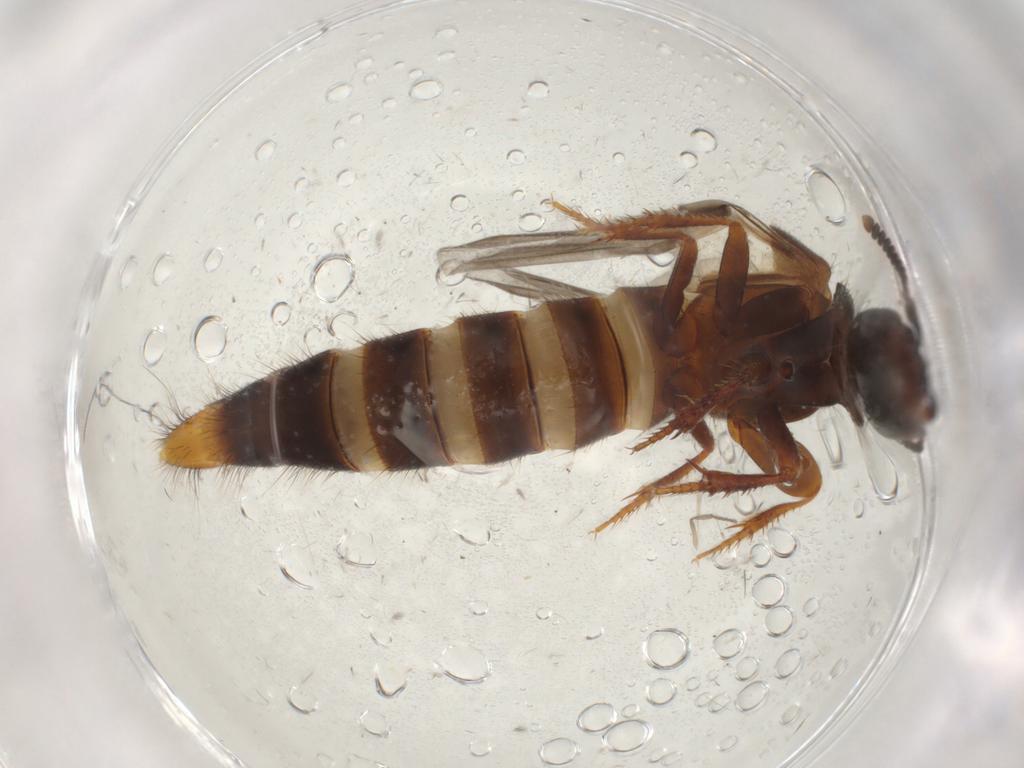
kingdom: Animalia
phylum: Arthropoda
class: Insecta
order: Coleoptera
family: Staphylinidae
